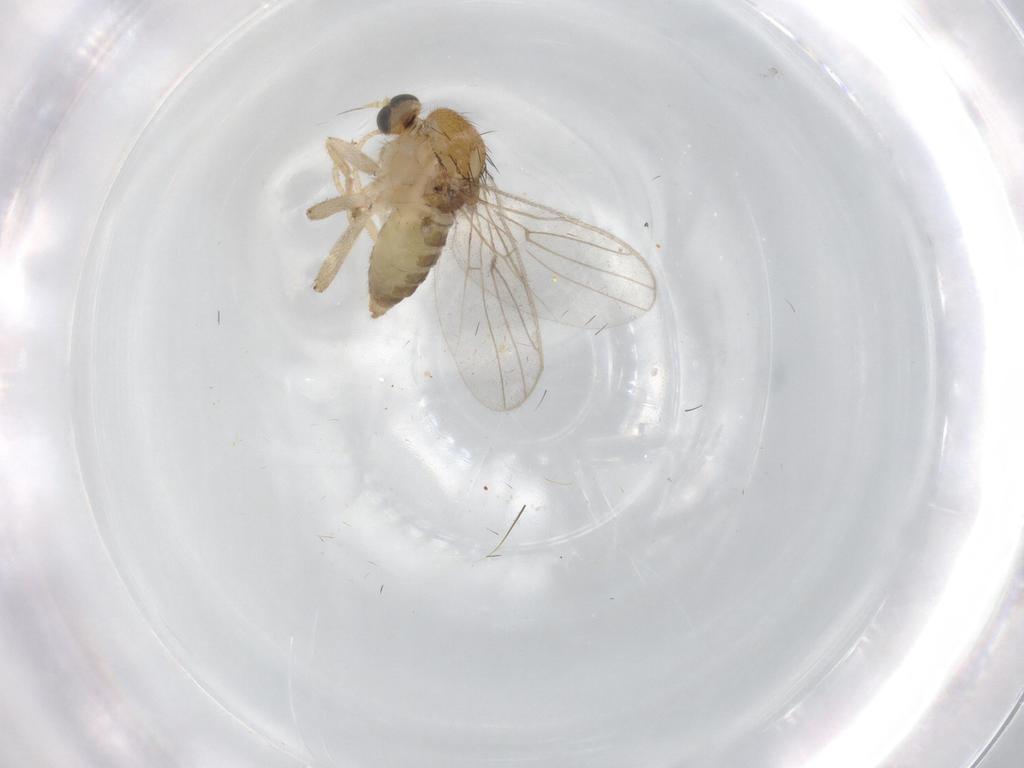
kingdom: Animalia
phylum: Arthropoda
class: Insecta
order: Diptera
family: Hybotidae
